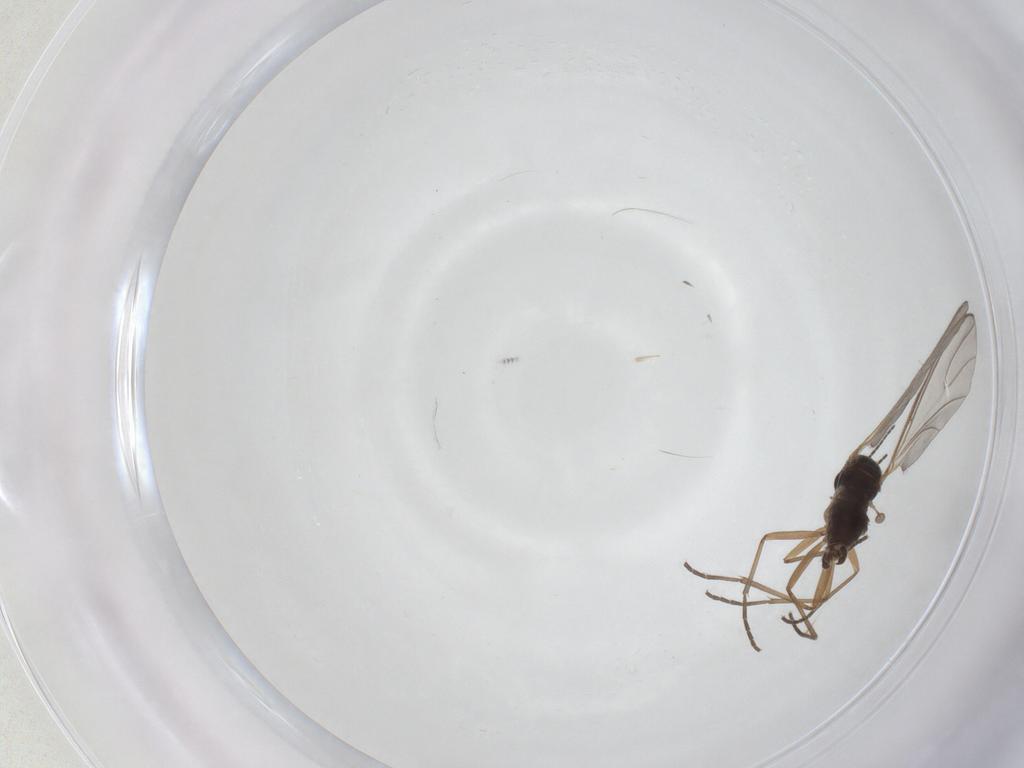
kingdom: Animalia
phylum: Arthropoda
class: Insecta
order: Diptera
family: Sciaridae
